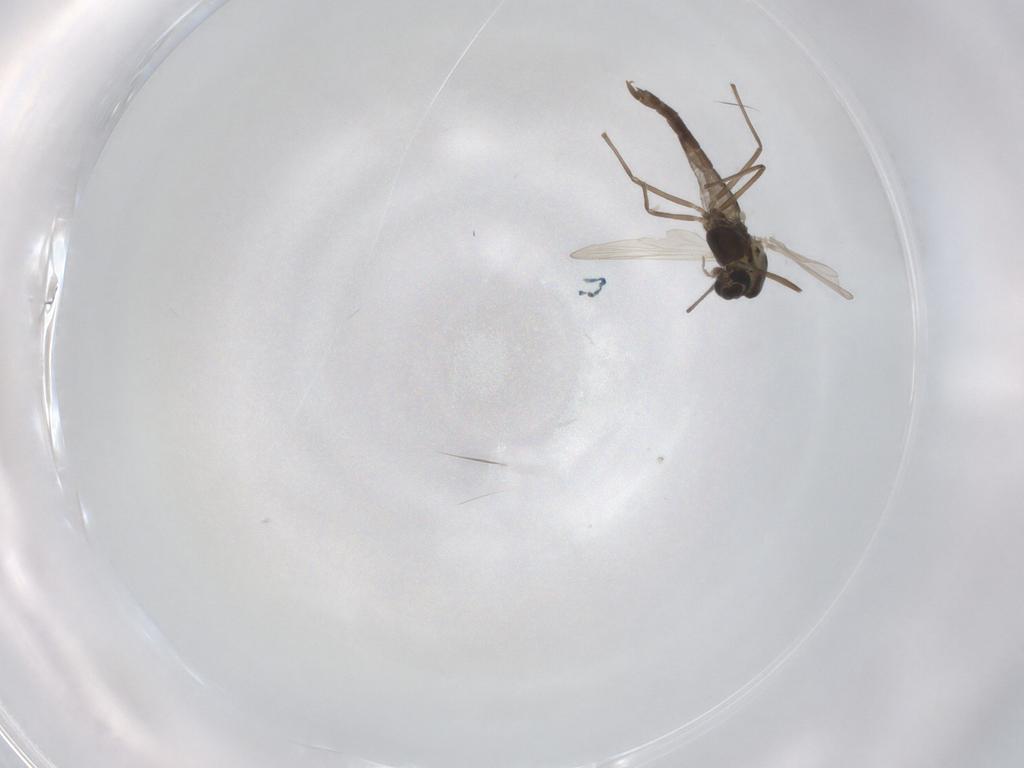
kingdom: Animalia
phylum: Arthropoda
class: Insecta
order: Diptera
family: Chironomidae
